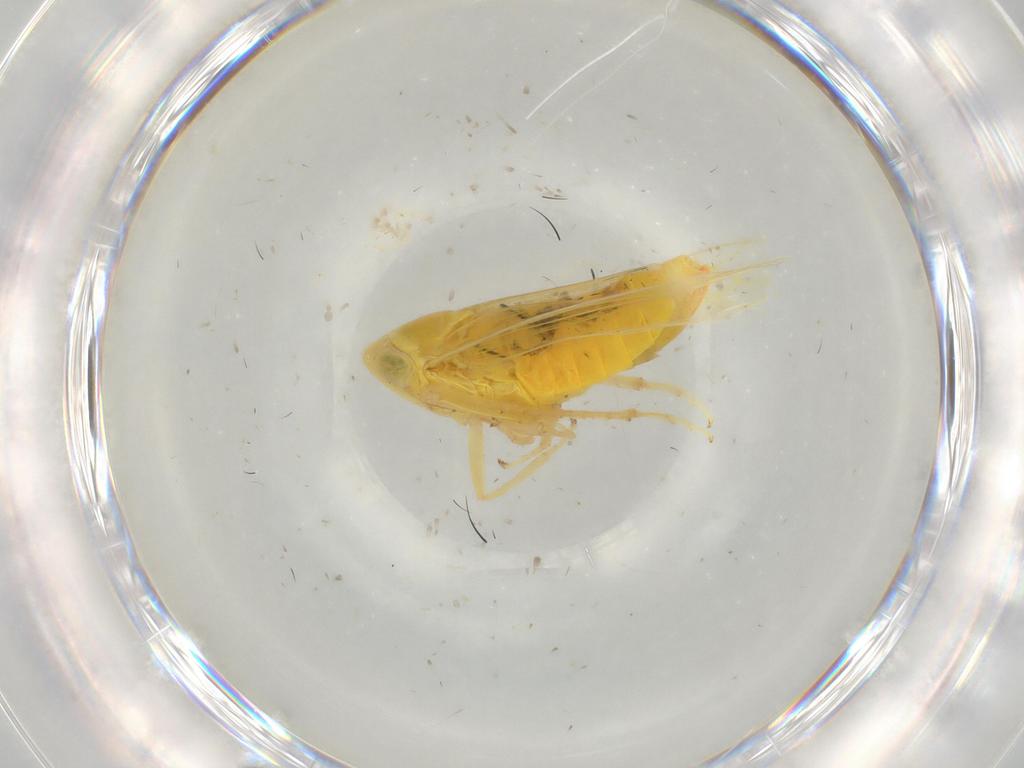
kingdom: Animalia
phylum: Arthropoda
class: Insecta
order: Hemiptera
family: Cicadellidae
